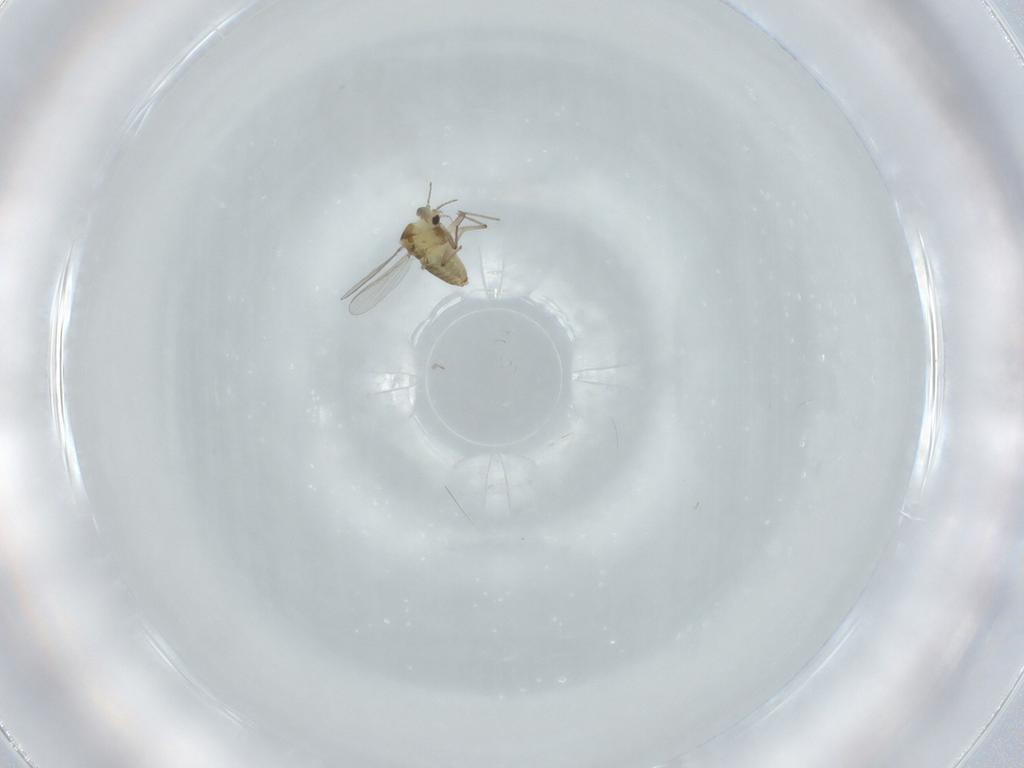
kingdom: Animalia
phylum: Arthropoda
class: Insecta
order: Diptera
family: Chironomidae
